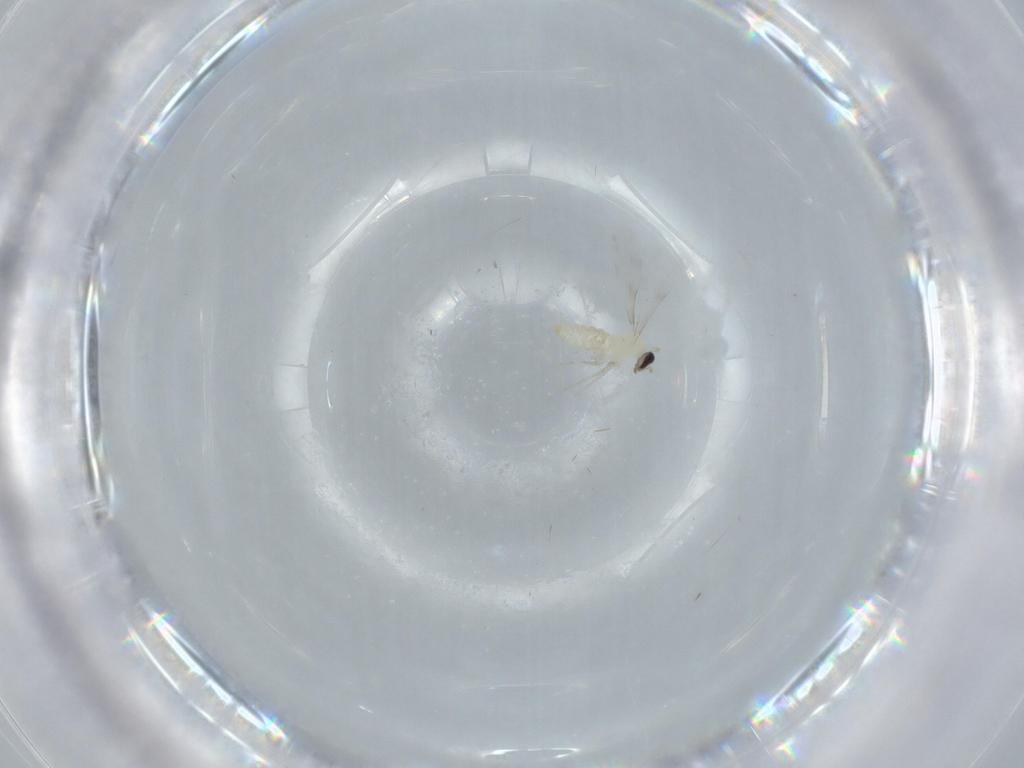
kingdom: Animalia
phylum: Arthropoda
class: Insecta
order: Diptera
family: Cecidomyiidae
